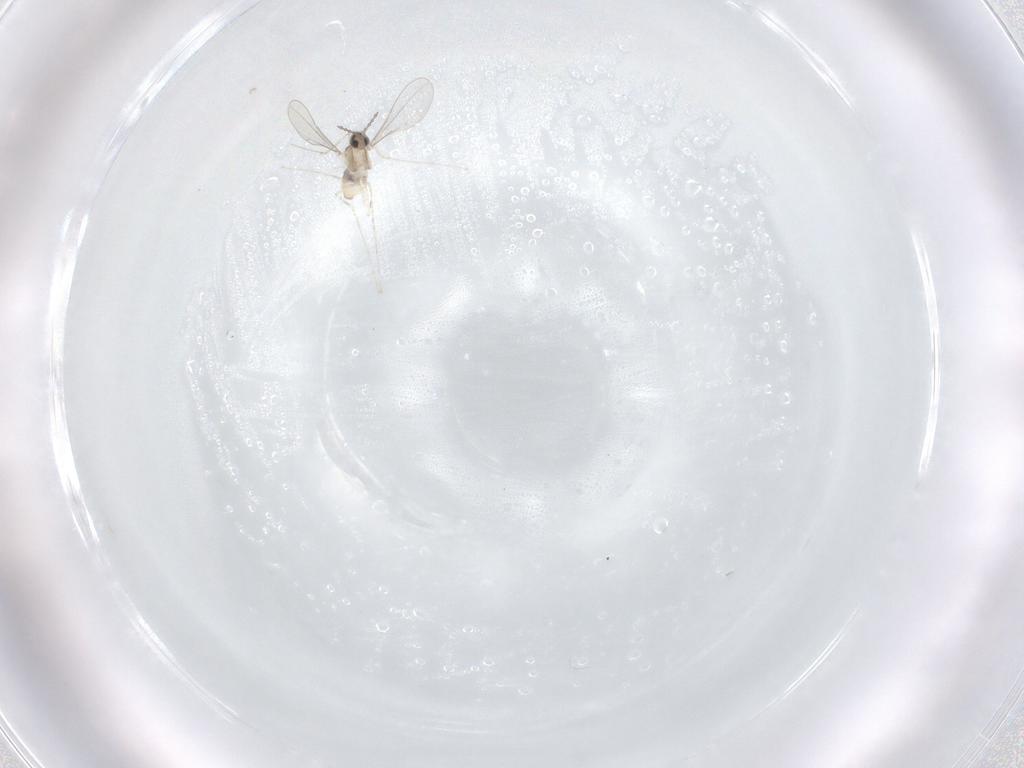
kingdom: Animalia
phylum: Arthropoda
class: Insecta
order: Diptera
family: Cecidomyiidae
